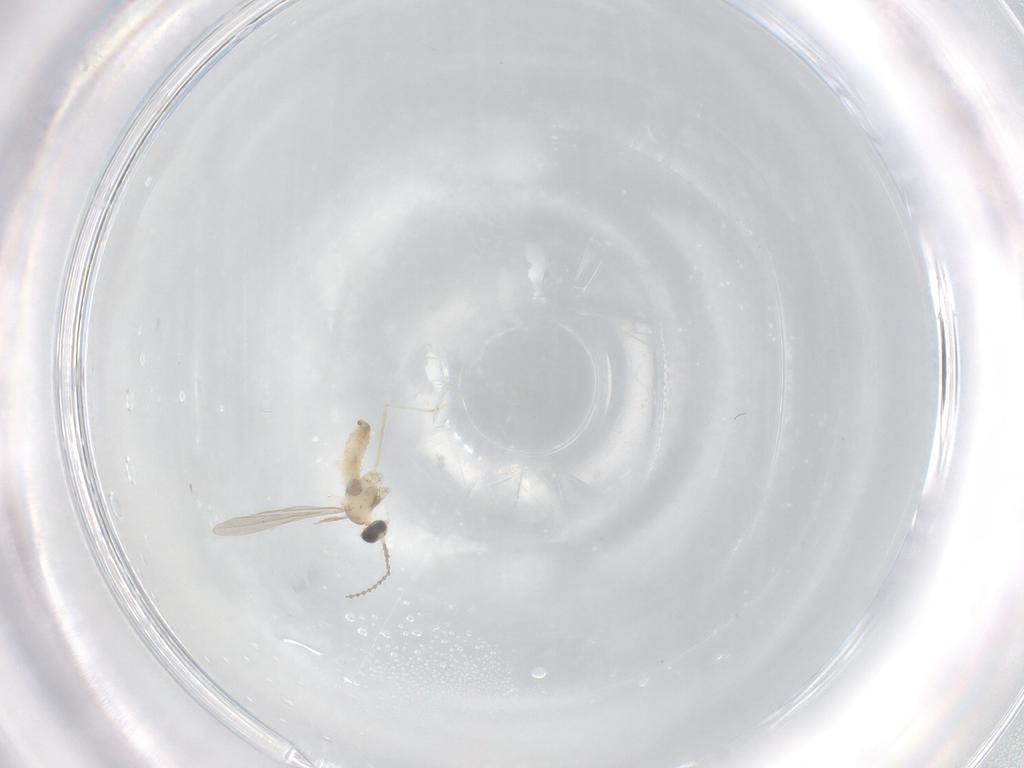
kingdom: Animalia
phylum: Arthropoda
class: Insecta
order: Diptera
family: Cecidomyiidae
